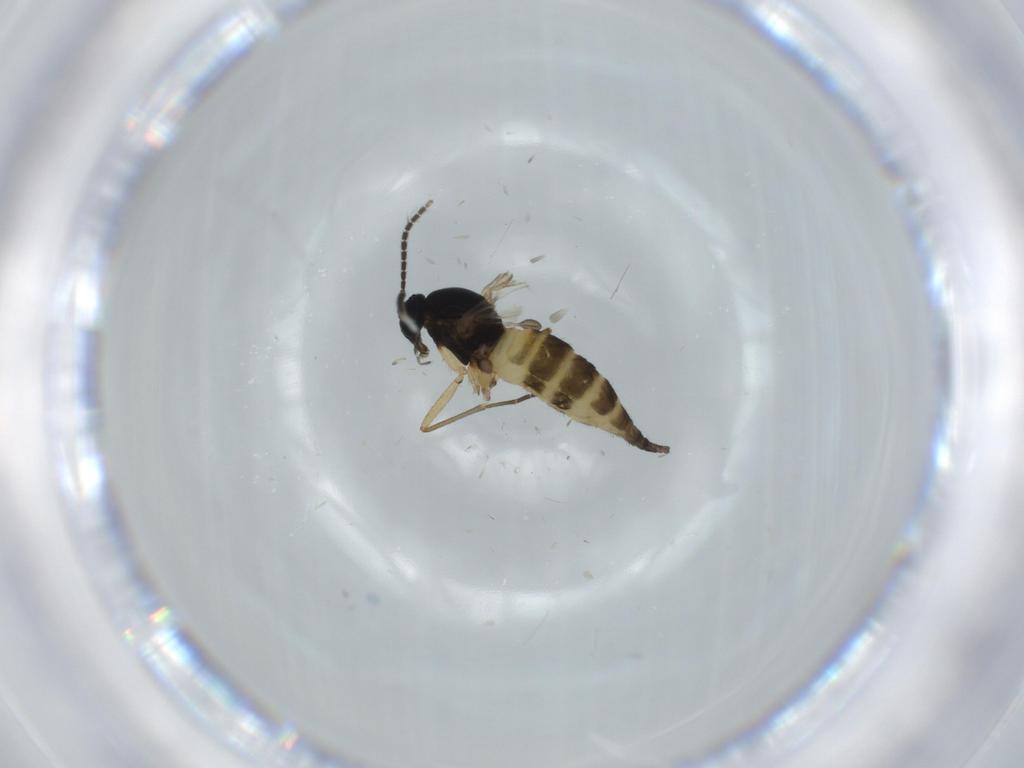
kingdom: Animalia
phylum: Arthropoda
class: Insecta
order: Diptera
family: Sciaridae
